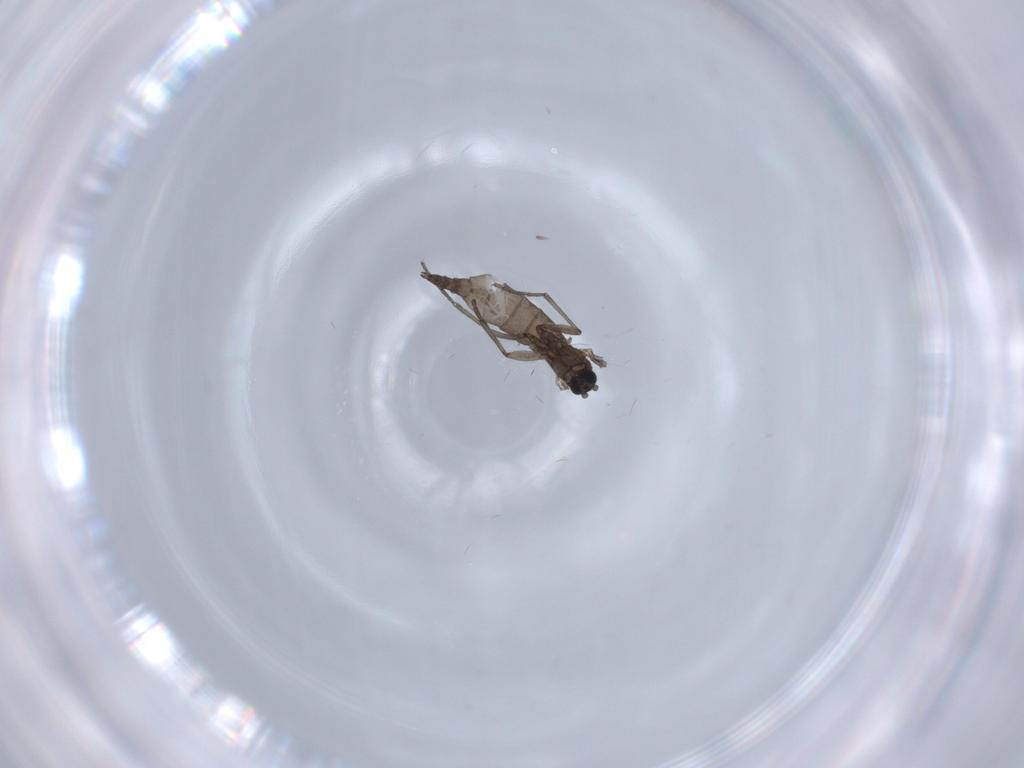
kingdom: Animalia
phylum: Arthropoda
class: Insecta
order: Diptera
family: Sciaridae
